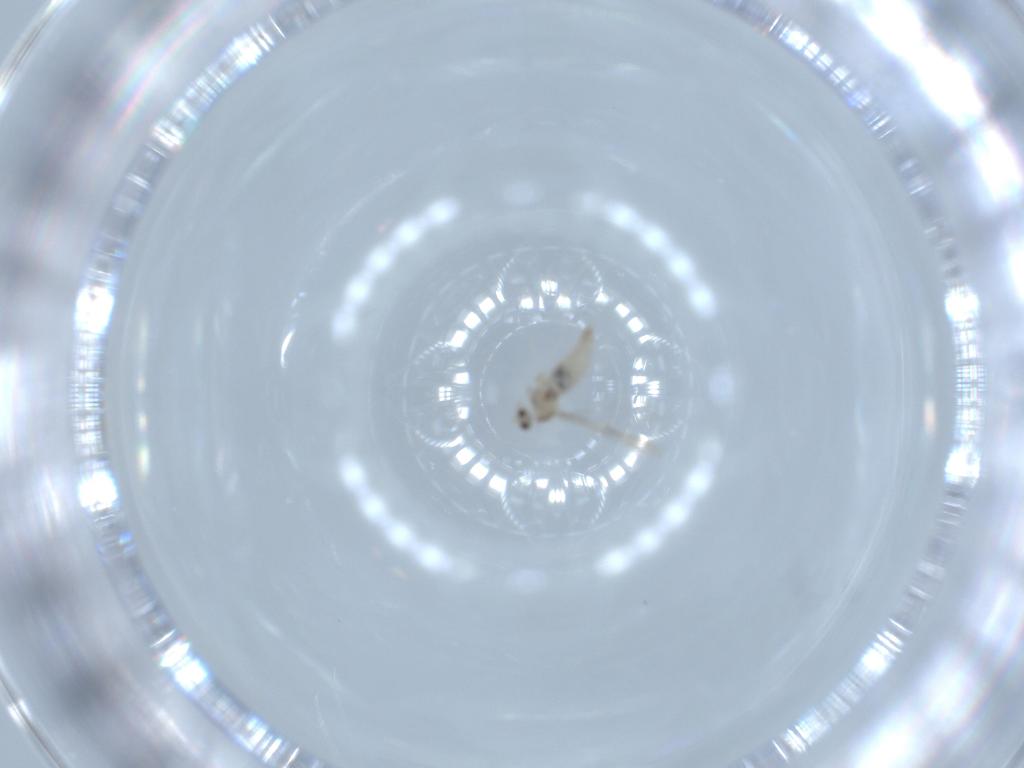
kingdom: Animalia
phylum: Arthropoda
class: Insecta
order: Diptera
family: Cecidomyiidae
